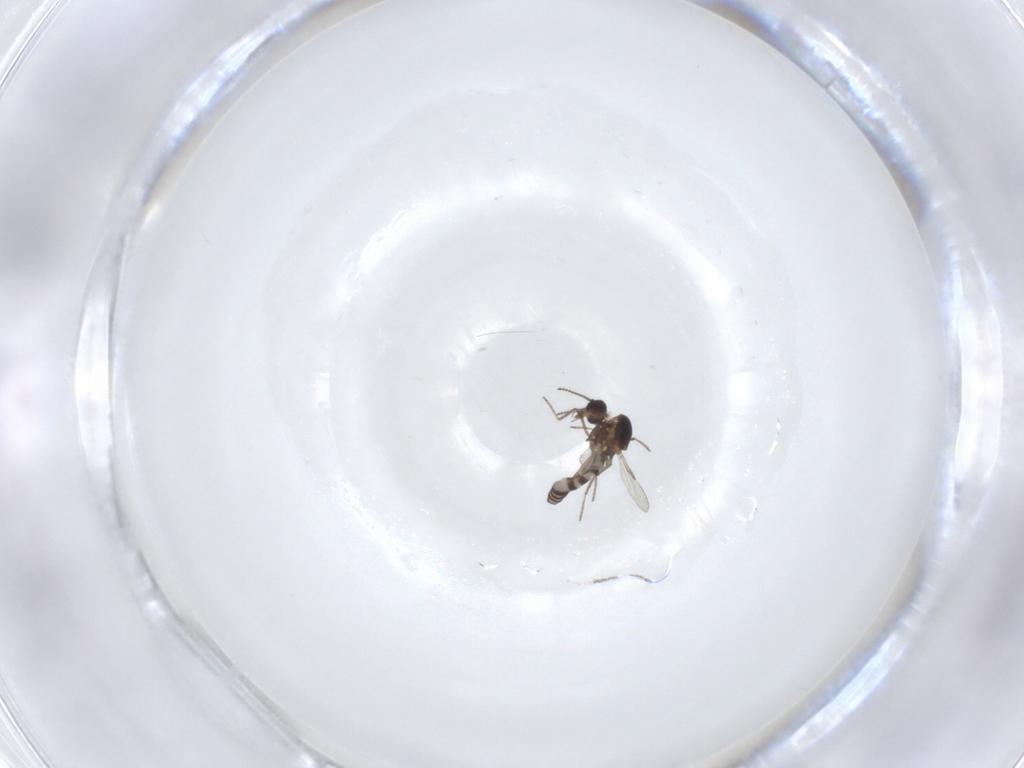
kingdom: Animalia
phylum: Arthropoda
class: Insecta
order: Diptera
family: Ceratopogonidae
